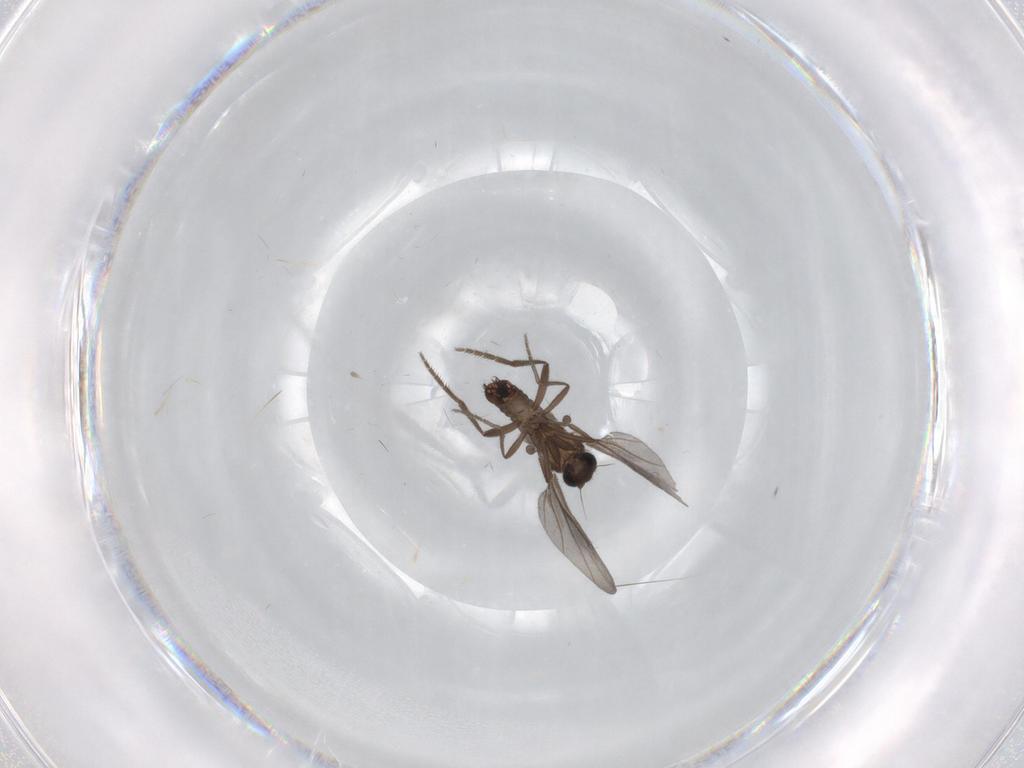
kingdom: Animalia
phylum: Arthropoda
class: Insecta
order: Diptera
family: Phoridae
